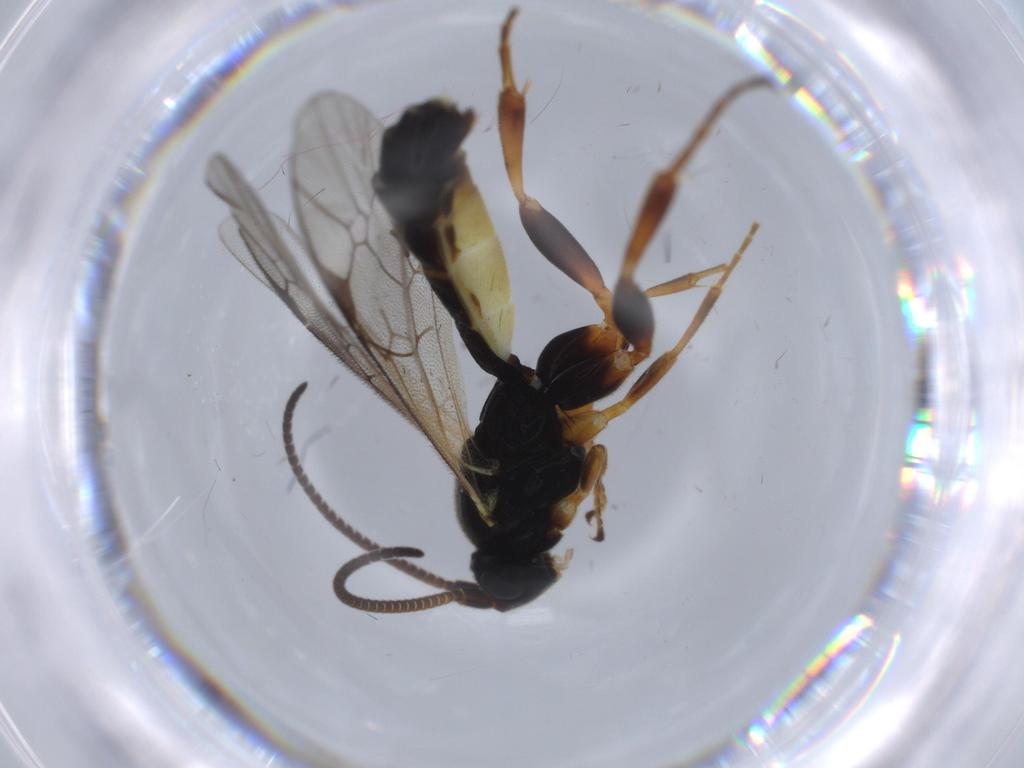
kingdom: Animalia
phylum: Arthropoda
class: Insecta
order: Hymenoptera
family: Ichneumonidae
